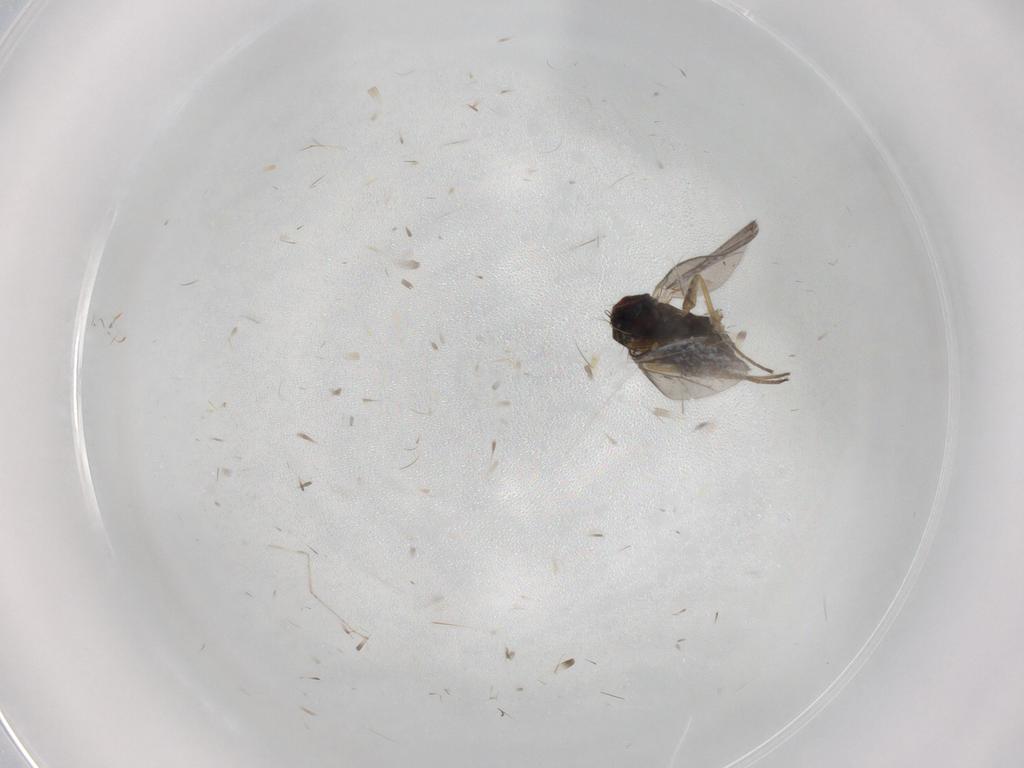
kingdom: Animalia
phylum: Arthropoda
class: Insecta
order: Diptera
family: Dolichopodidae
